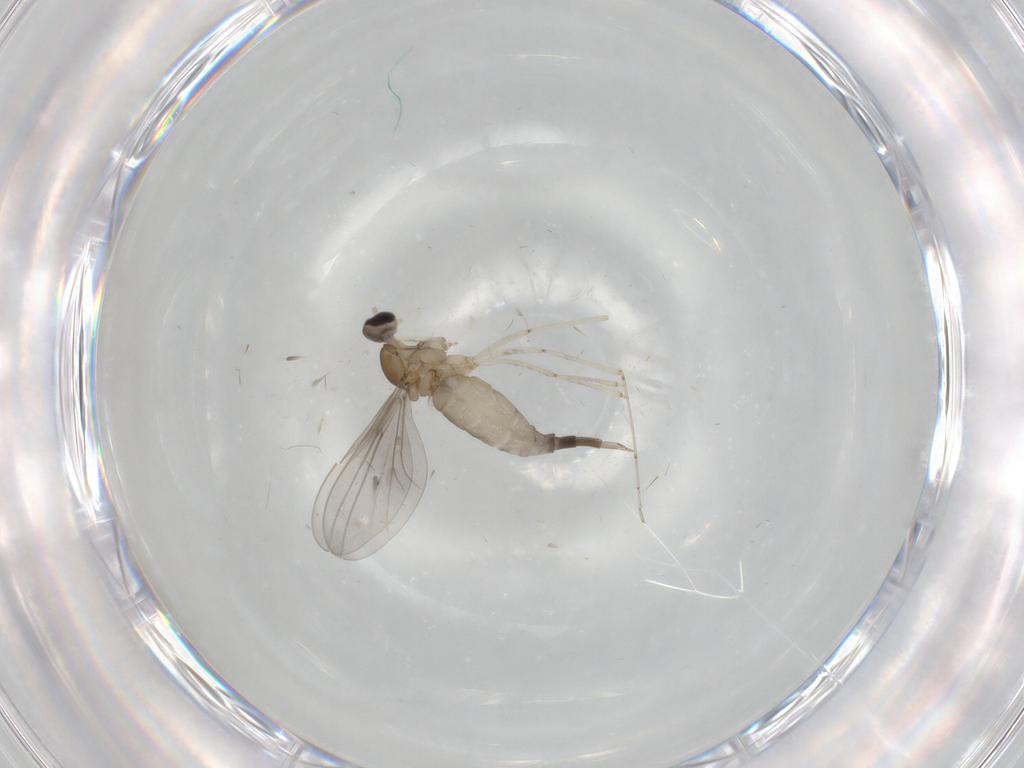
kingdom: Animalia
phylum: Arthropoda
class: Insecta
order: Diptera
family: Cecidomyiidae
